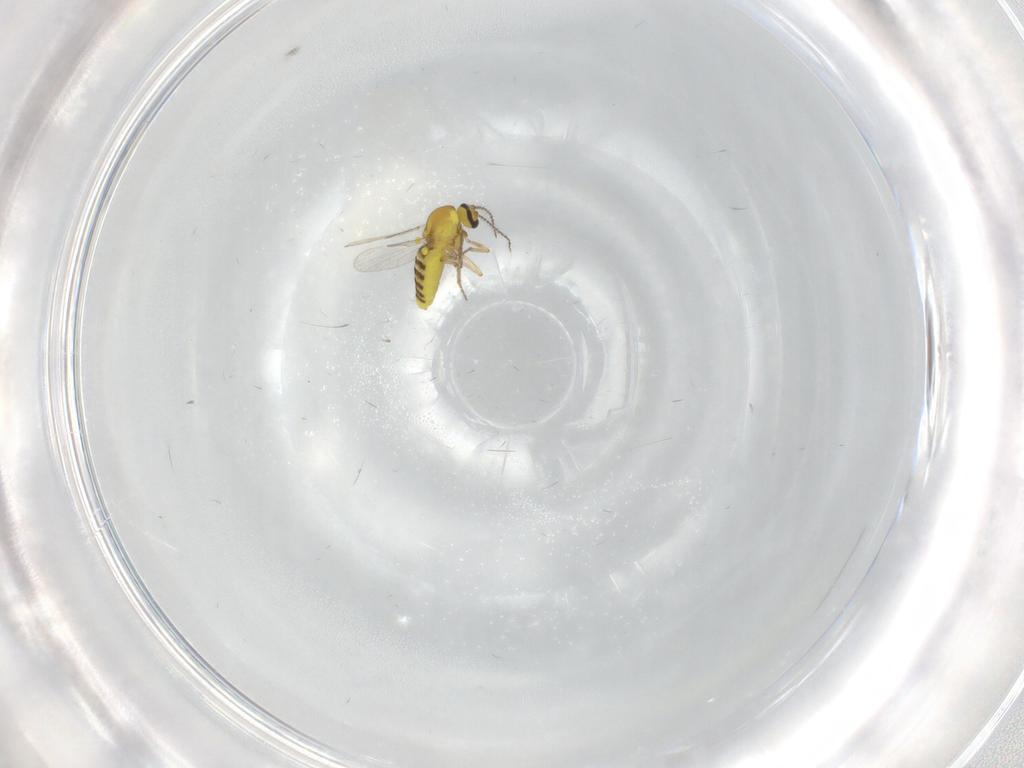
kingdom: Animalia
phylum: Arthropoda
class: Insecta
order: Diptera
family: Ceratopogonidae
